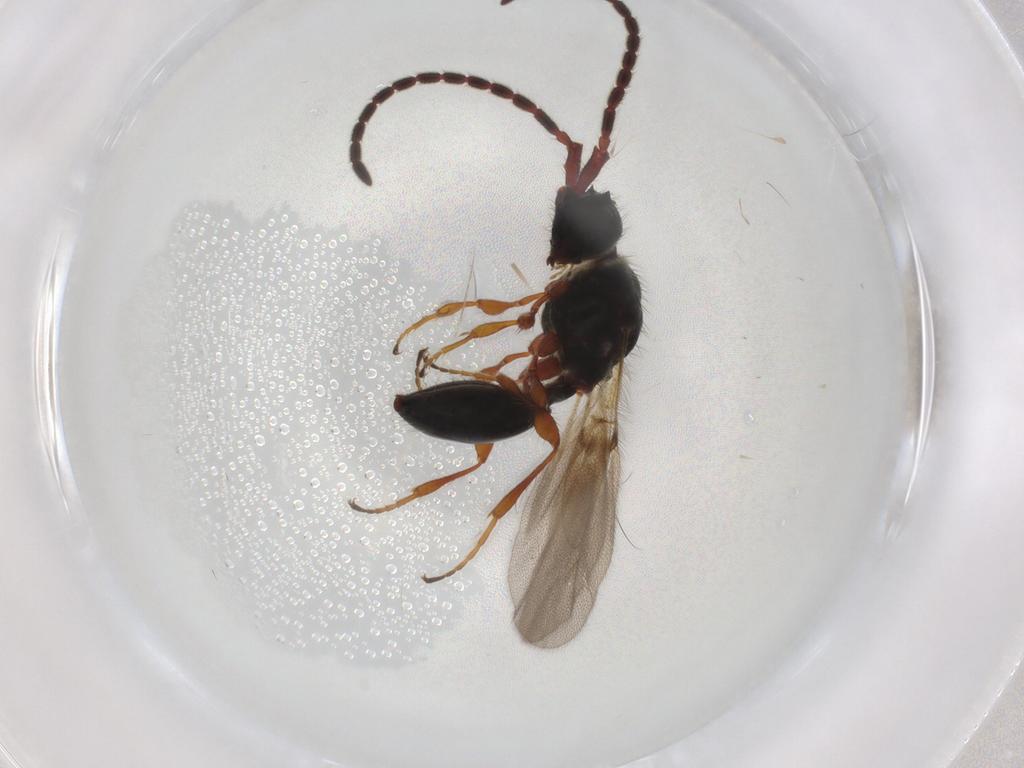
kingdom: Animalia
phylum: Arthropoda
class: Insecta
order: Hymenoptera
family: Diapriidae
